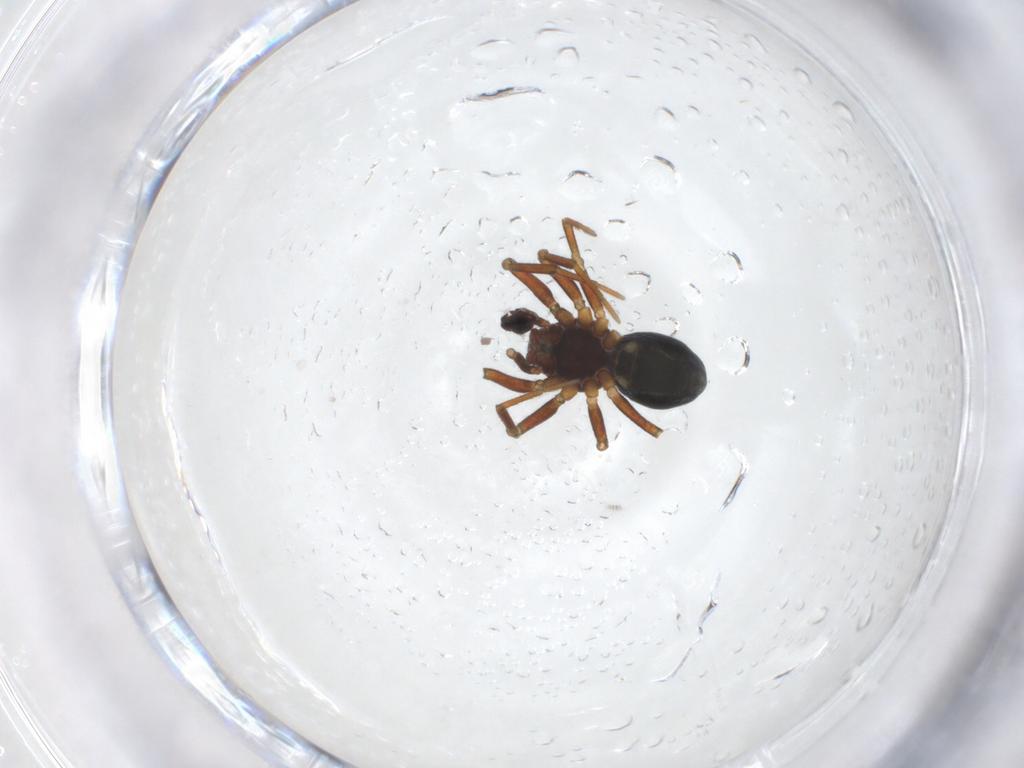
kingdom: Animalia
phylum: Arthropoda
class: Arachnida
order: Araneae
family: Linyphiidae
